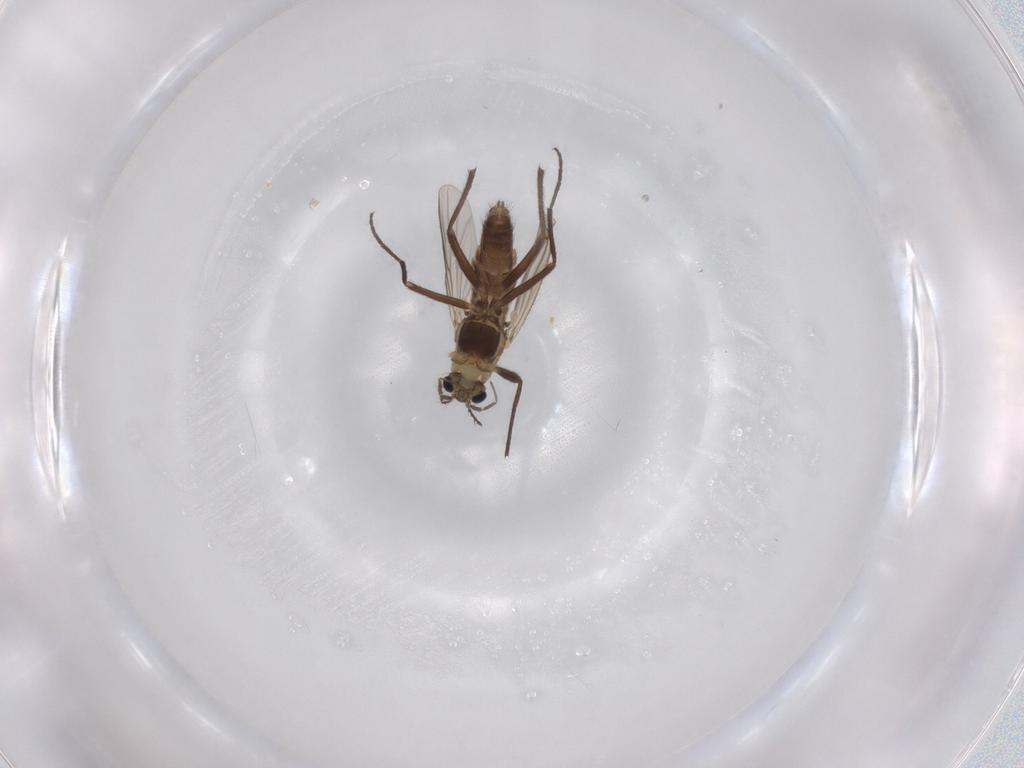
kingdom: Animalia
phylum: Arthropoda
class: Insecta
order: Diptera
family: Chironomidae
